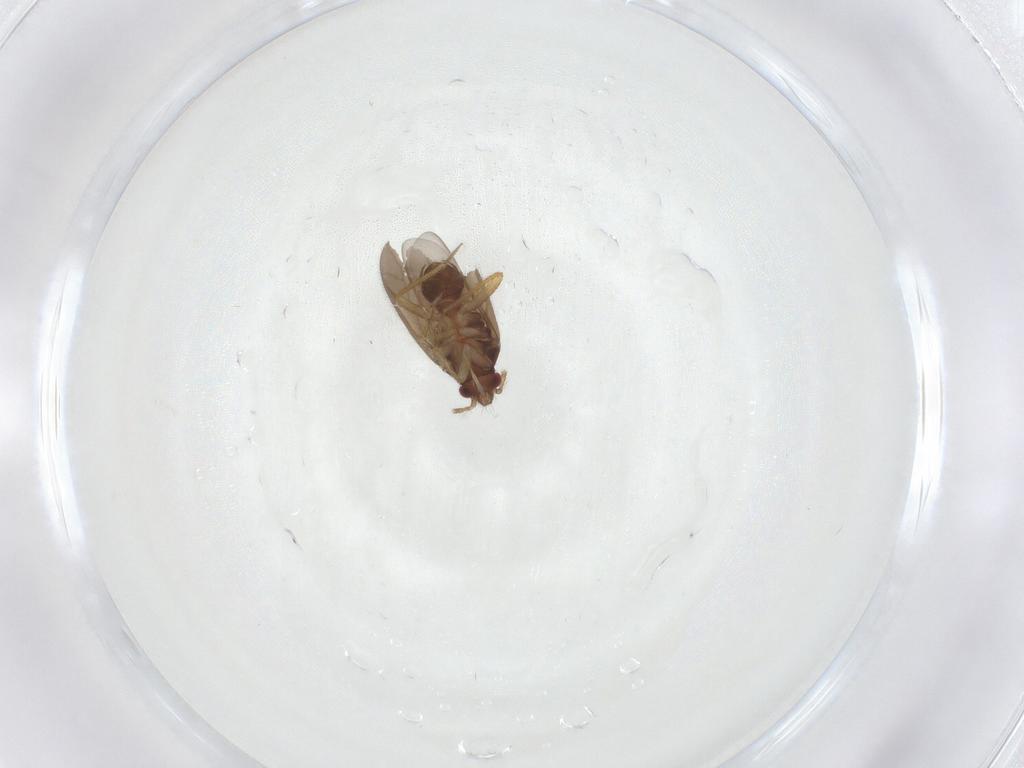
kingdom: Animalia
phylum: Arthropoda
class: Insecta
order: Hemiptera
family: Ceratocombidae
